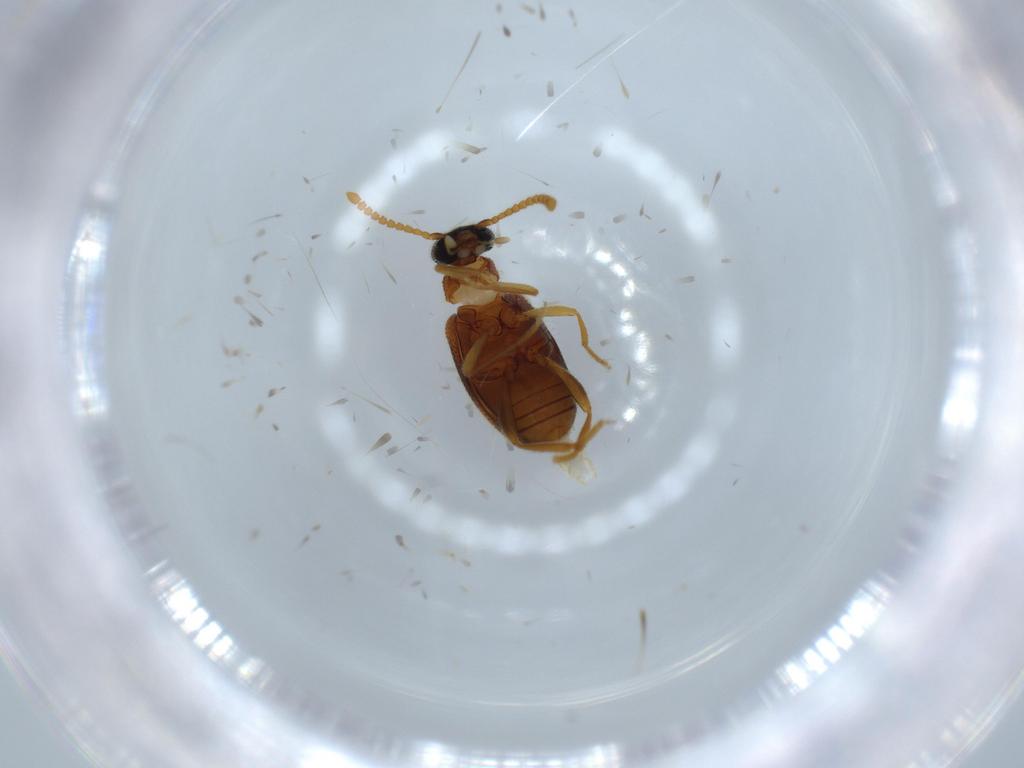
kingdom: Animalia
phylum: Arthropoda
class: Insecta
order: Coleoptera
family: Aderidae
